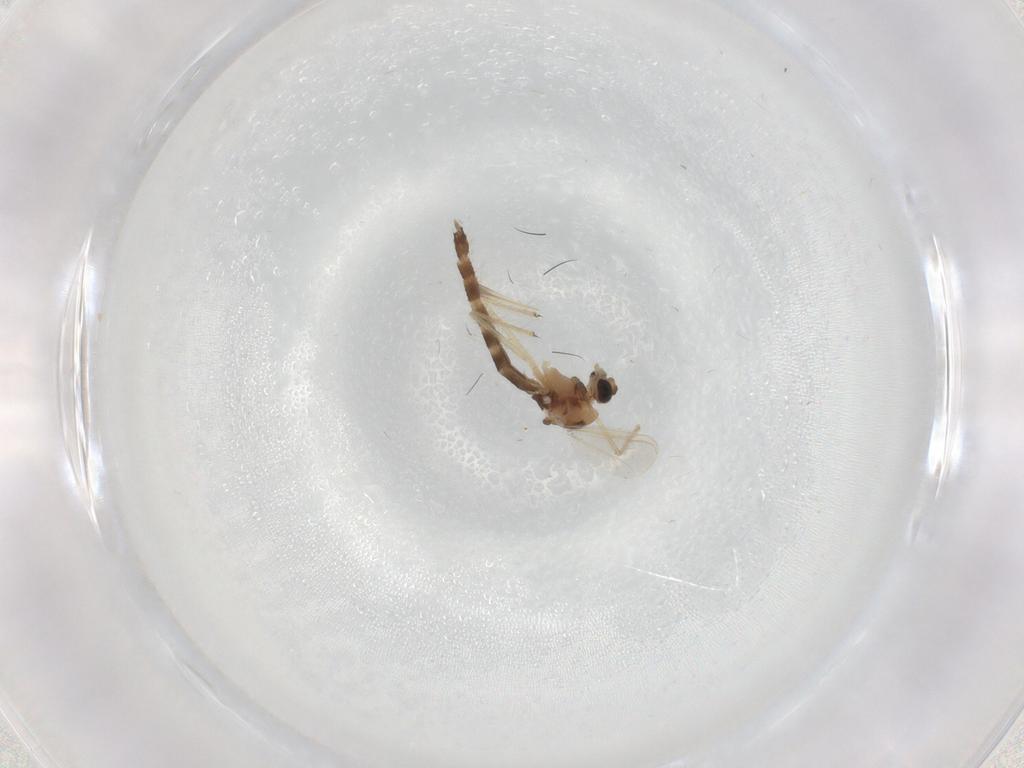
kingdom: Animalia
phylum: Arthropoda
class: Insecta
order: Diptera
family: Chironomidae
